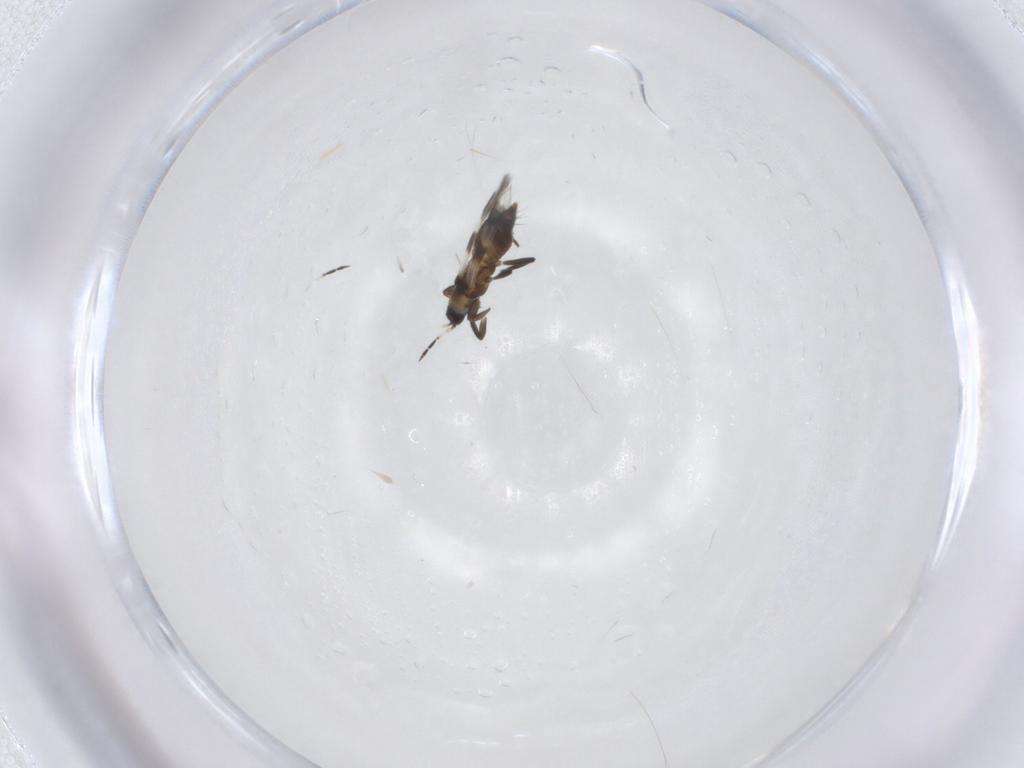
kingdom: Animalia
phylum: Arthropoda
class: Insecta
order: Thysanoptera
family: Aeolothripidae
